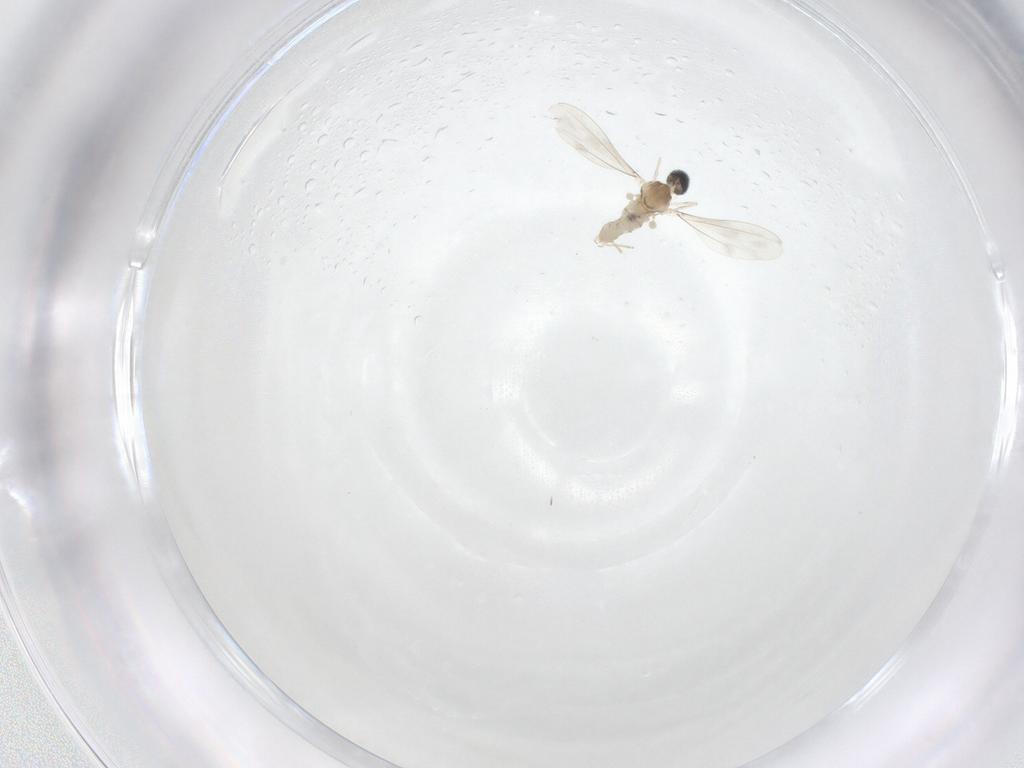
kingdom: Animalia
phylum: Arthropoda
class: Insecta
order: Diptera
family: Cecidomyiidae
